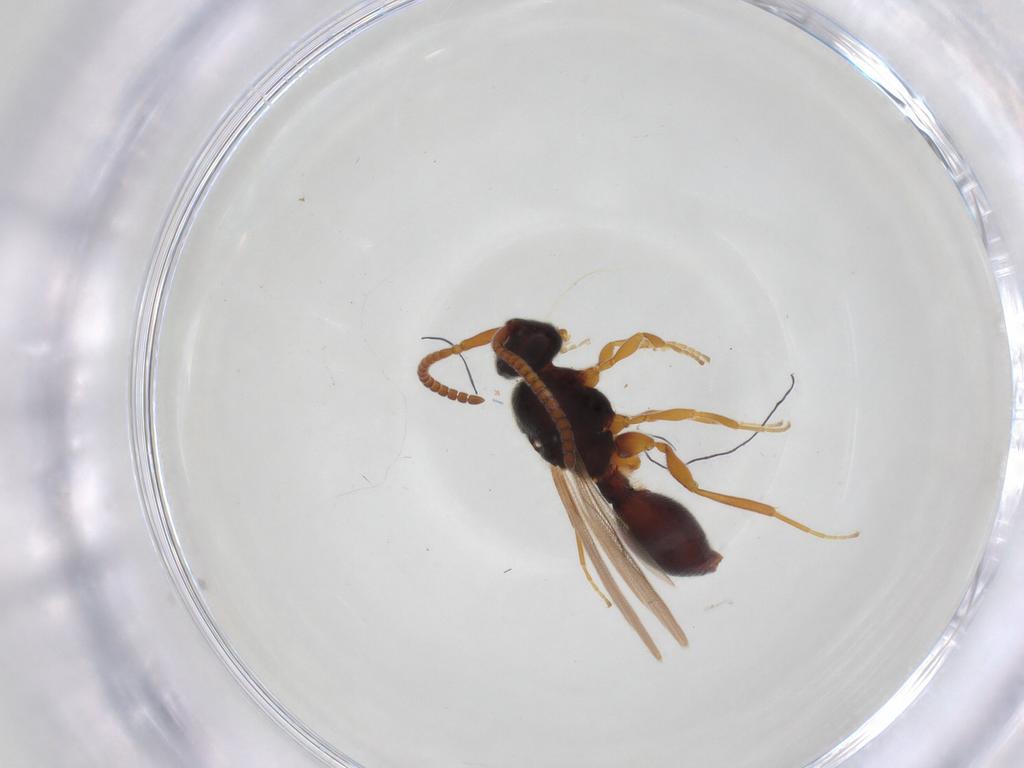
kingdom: Animalia
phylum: Arthropoda
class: Insecta
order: Hymenoptera
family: Diapriidae
